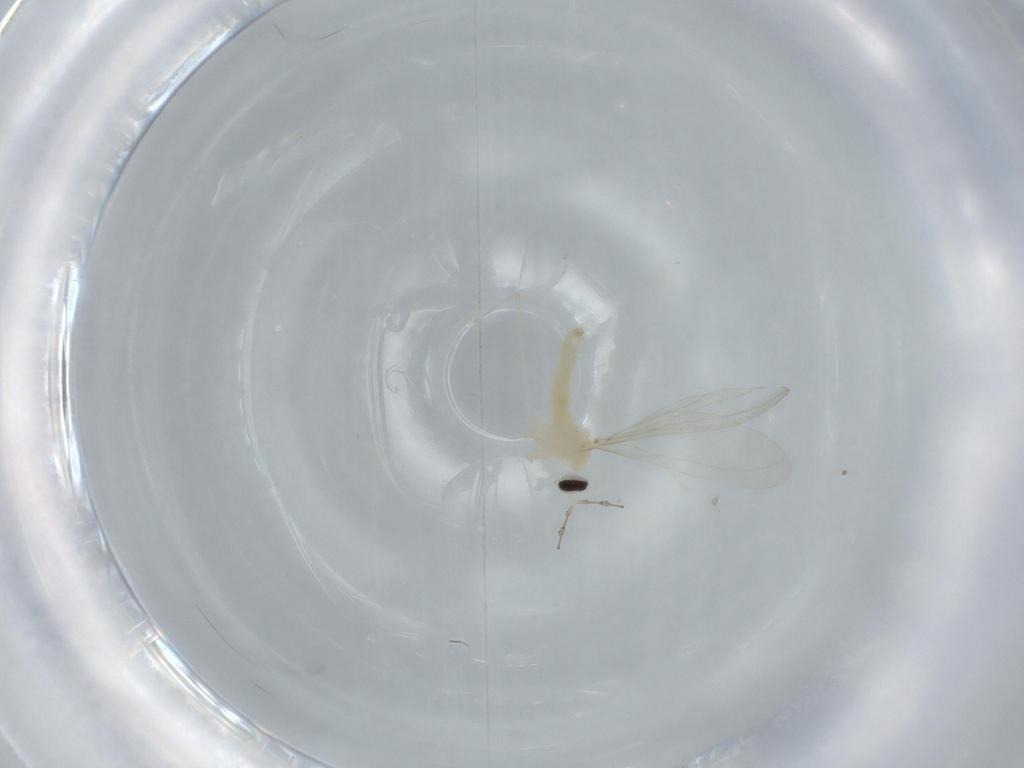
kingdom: Animalia
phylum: Arthropoda
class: Insecta
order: Diptera
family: Cecidomyiidae
